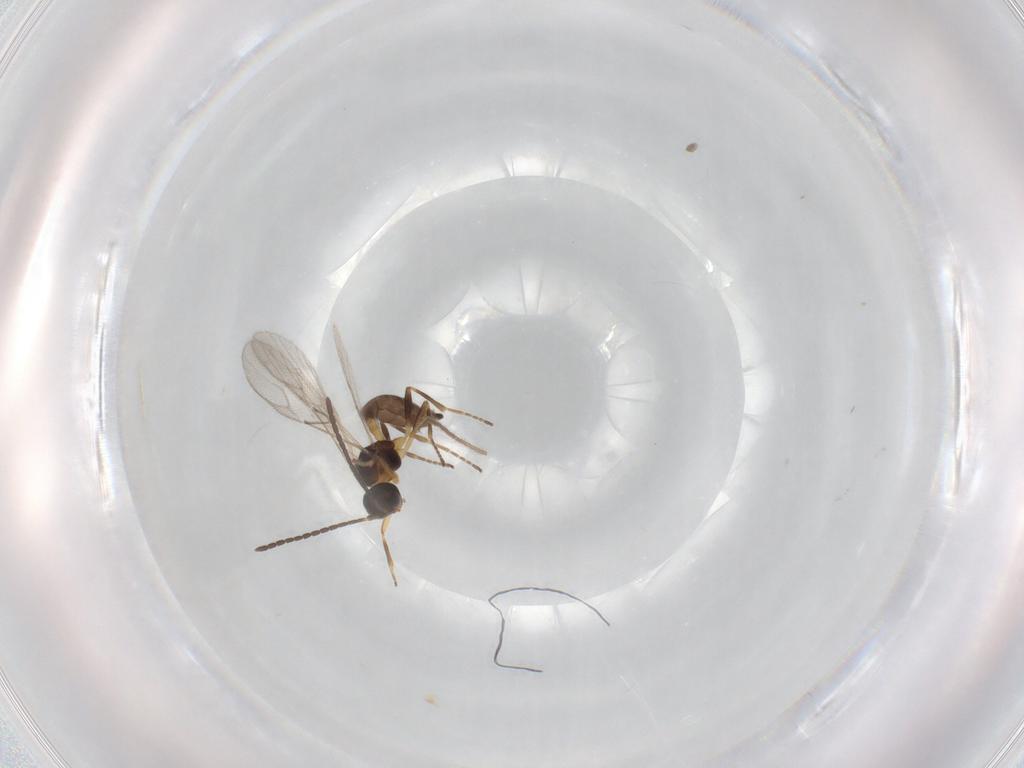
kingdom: Animalia
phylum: Arthropoda
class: Insecta
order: Hymenoptera
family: Braconidae
